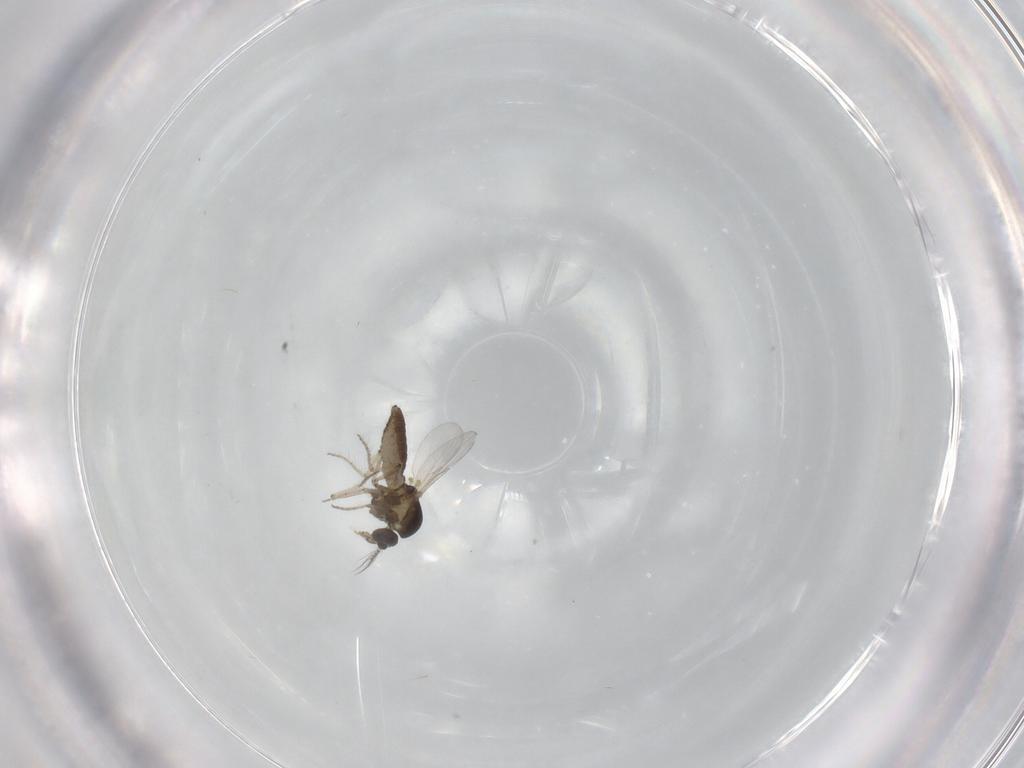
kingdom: Animalia
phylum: Arthropoda
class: Insecta
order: Diptera
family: Ceratopogonidae
